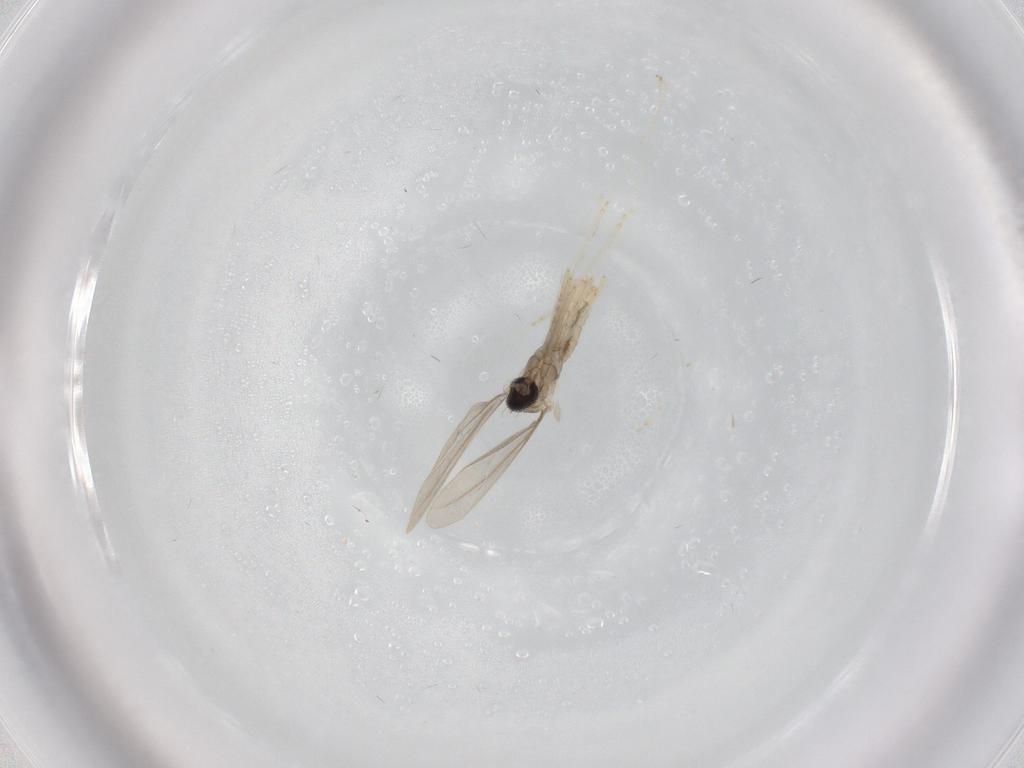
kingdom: Animalia
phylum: Arthropoda
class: Insecta
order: Diptera
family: Cecidomyiidae
